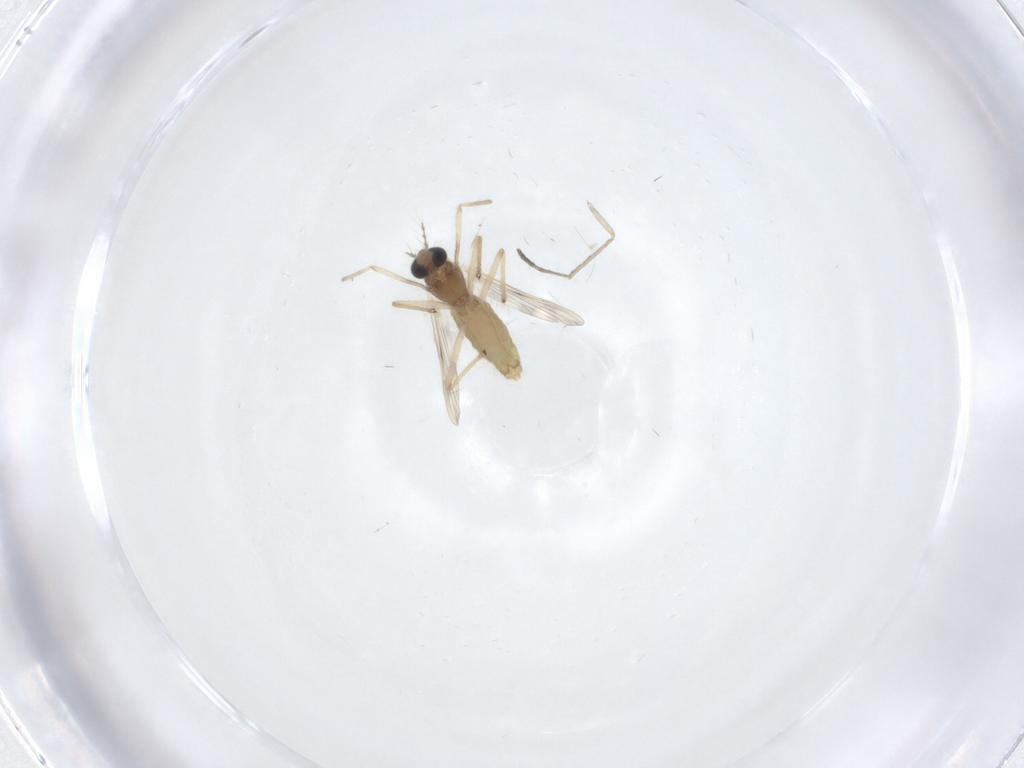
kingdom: Animalia
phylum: Arthropoda
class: Insecta
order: Diptera
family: Chironomidae
